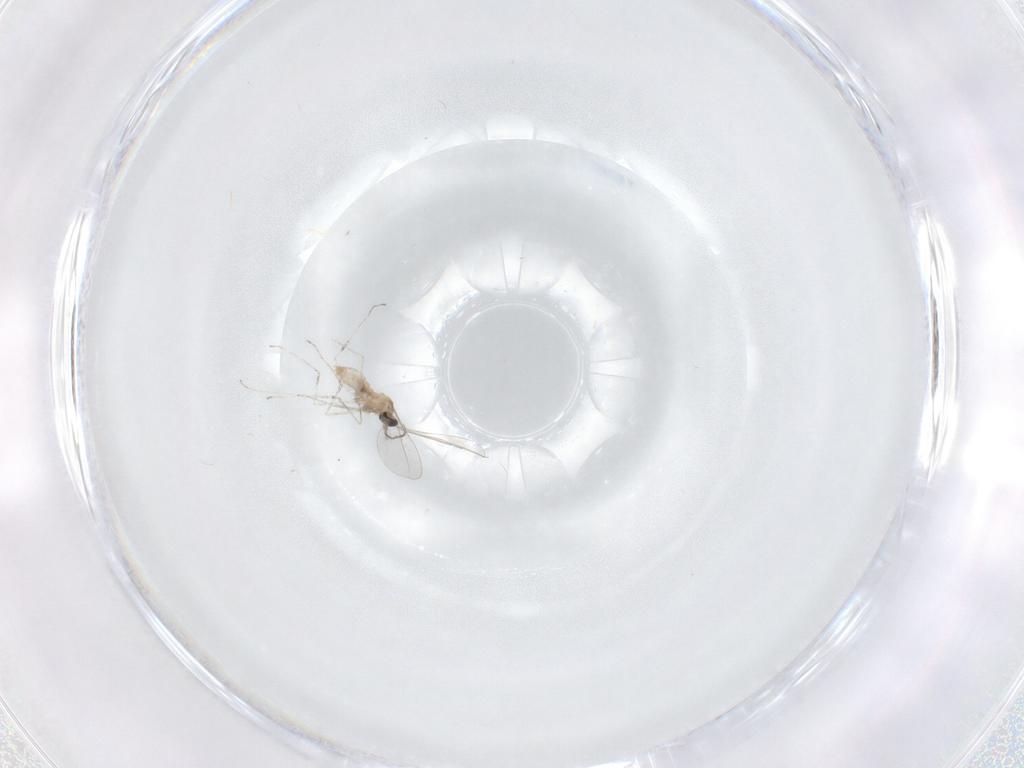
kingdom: Animalia
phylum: Arthropoda
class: Insecta
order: Diptera
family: Cecidomyiidae
